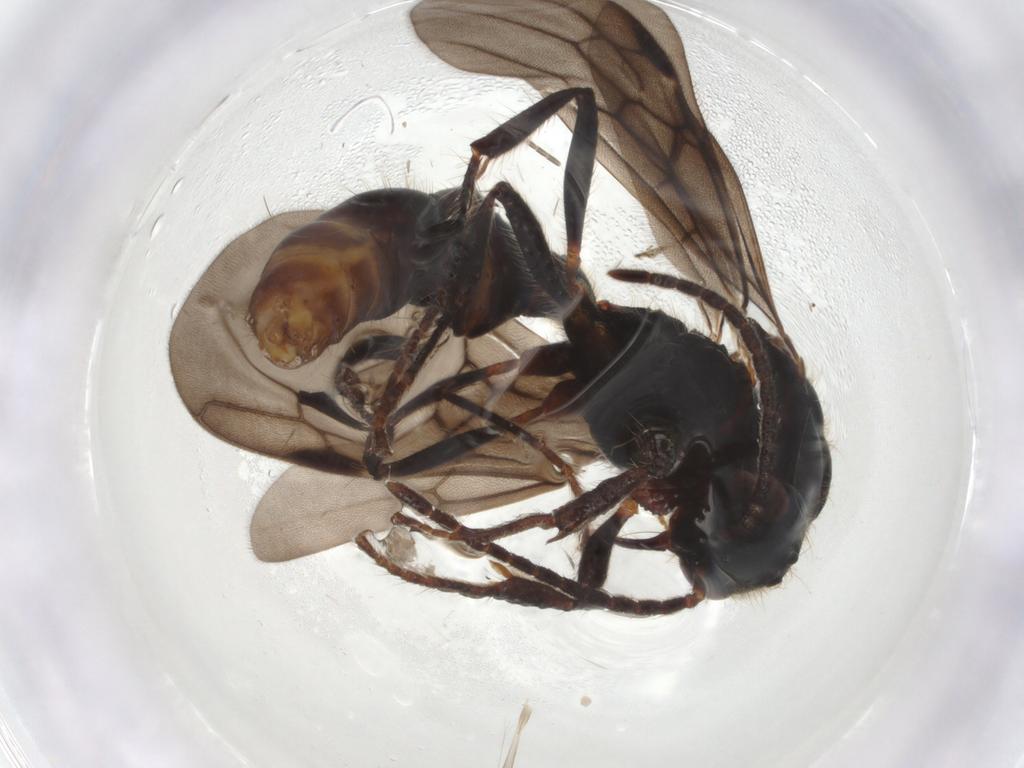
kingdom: Animalia
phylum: Arthropoda
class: Insecta
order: Hymenoptera
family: Formicidae
